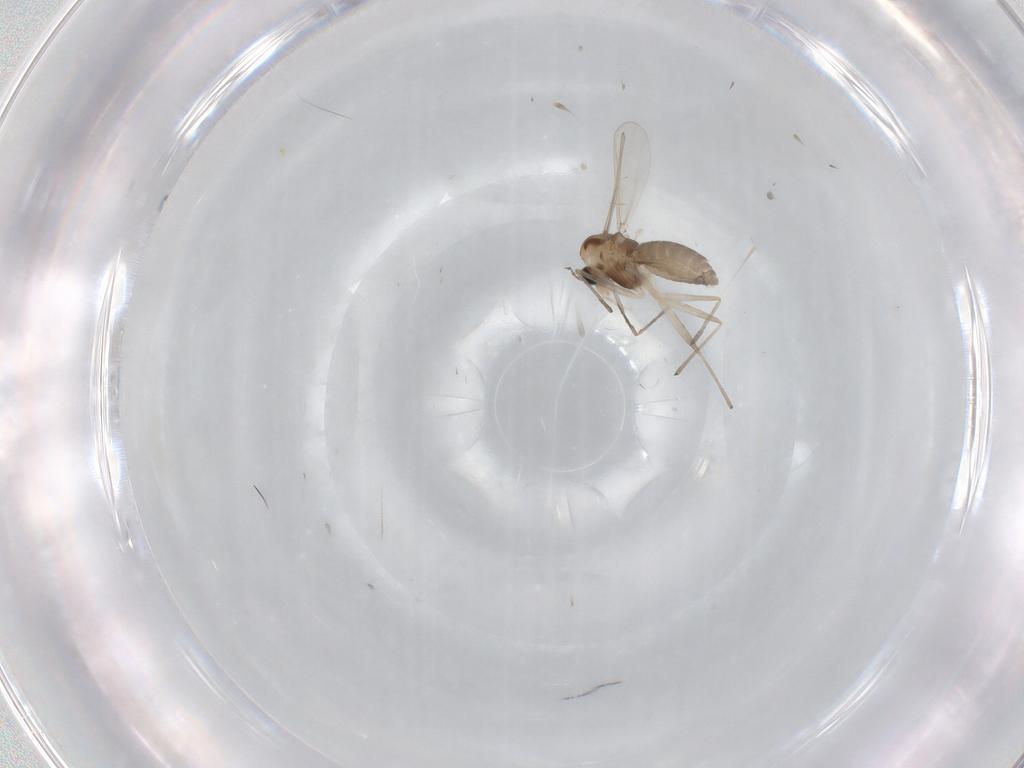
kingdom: Animalia
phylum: Arthropoda
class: Insecta
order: Diptera
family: Chironomidae
